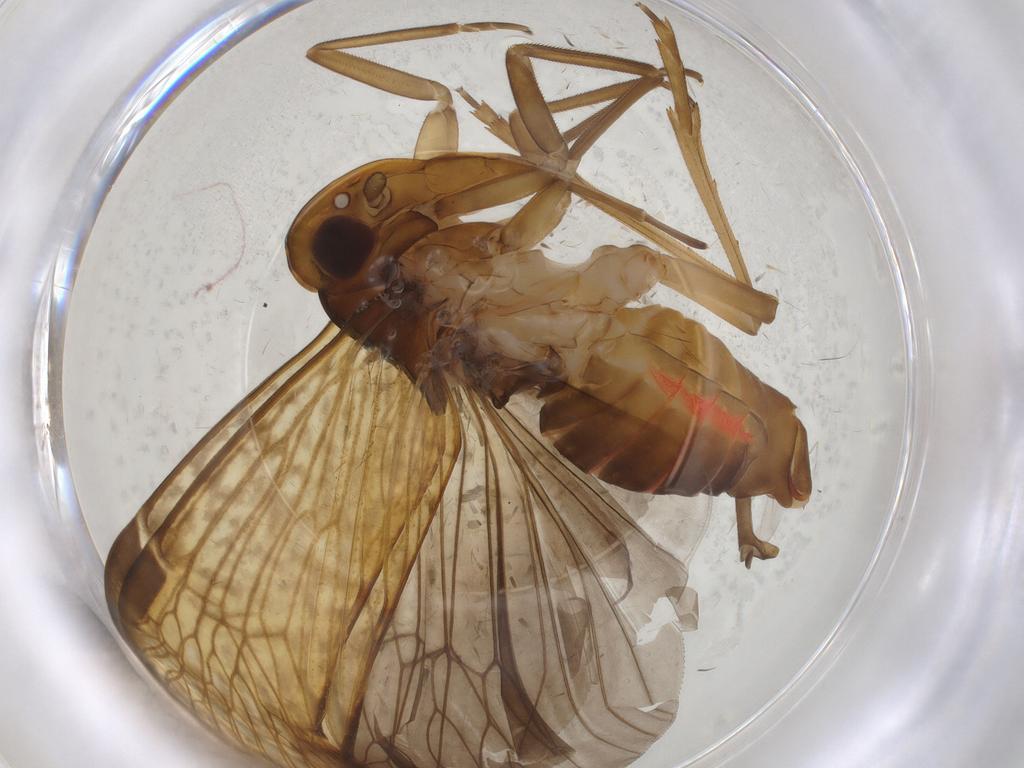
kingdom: Animalia
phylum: Arthropoda
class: Insecta
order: Hemiptera
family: Cixiidae
